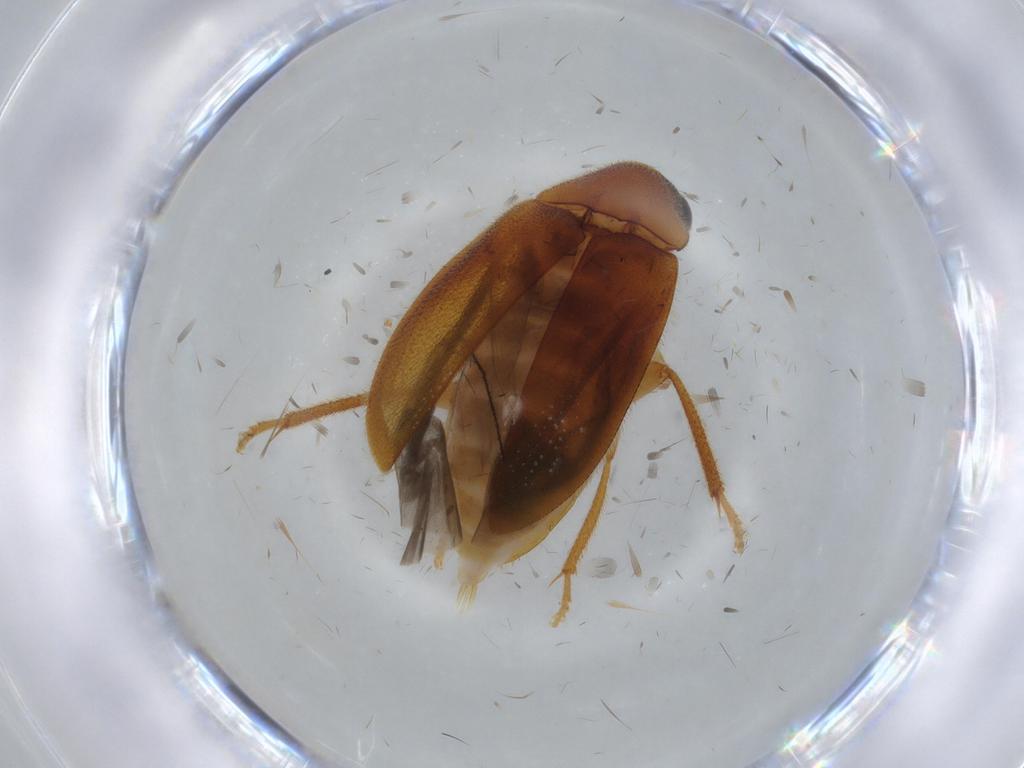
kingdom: Animalia
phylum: Arthropoda
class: Insecta
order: Coleoptera
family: Ptilodactylidae
